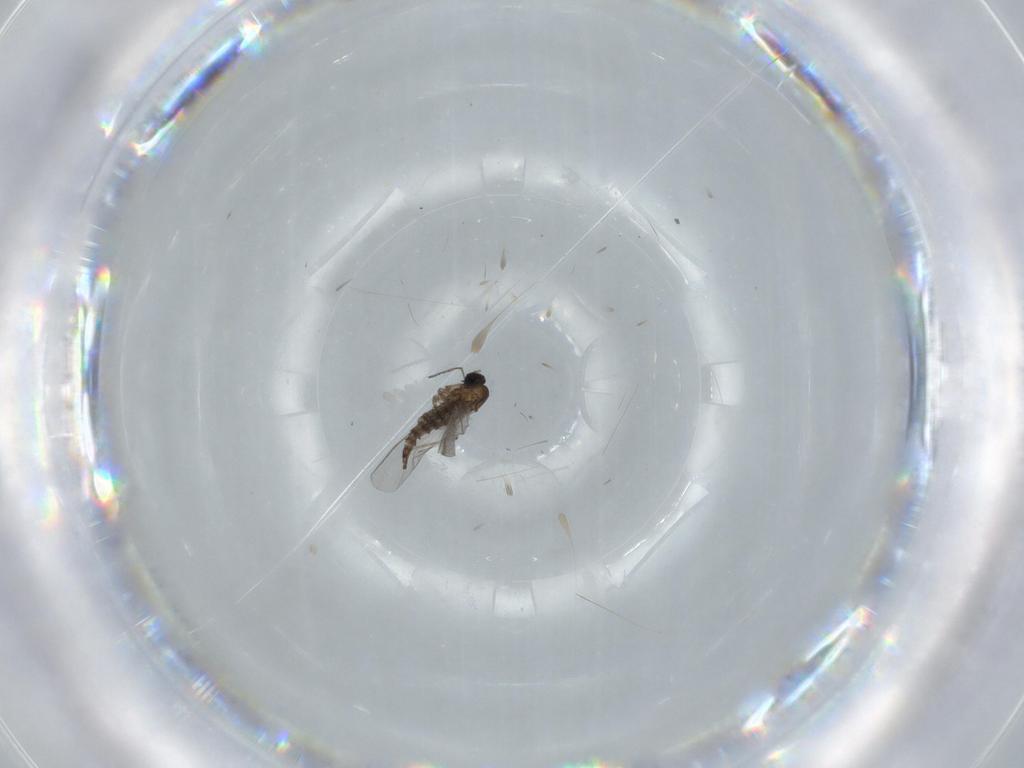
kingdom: Animalia
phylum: Arthropoda
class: Insecta
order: Diptera
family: Sciaridae
